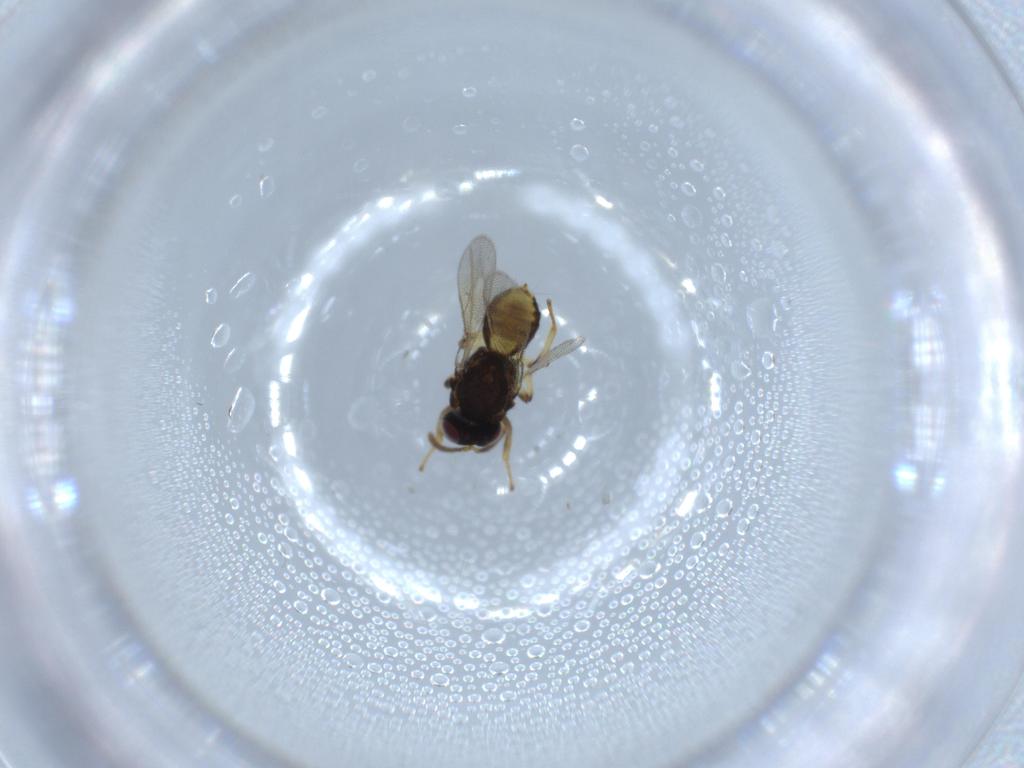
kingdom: Animalia
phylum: Arthropoda
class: Insecta
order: Hymenoptera
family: Tanaostigmatidae
